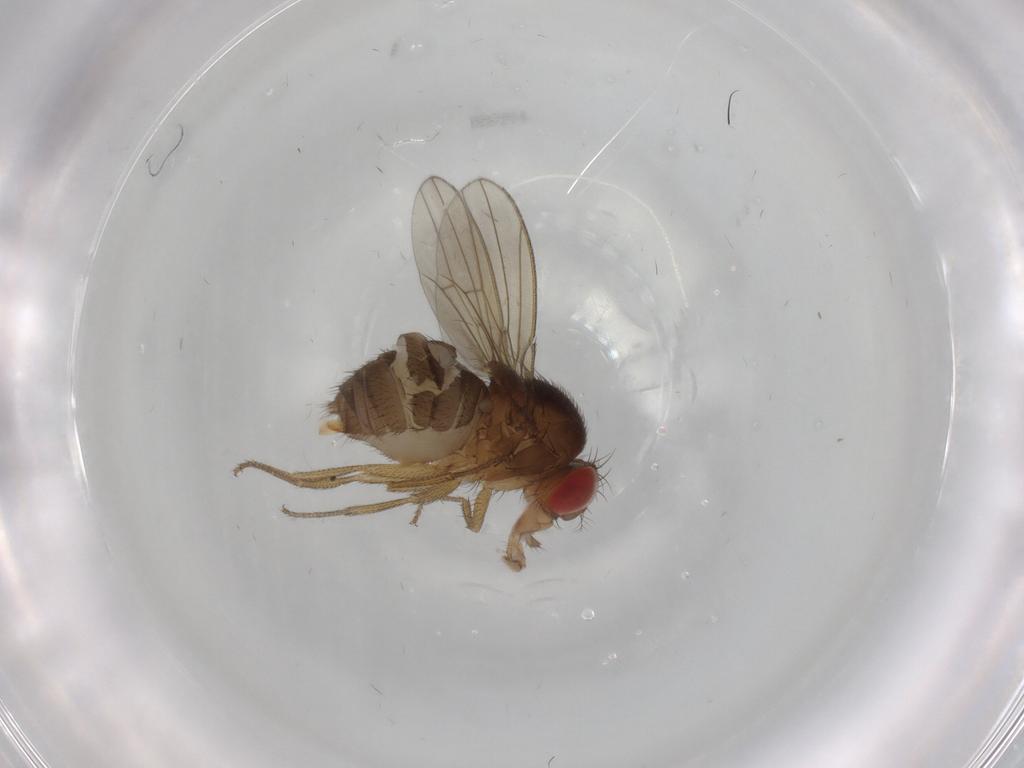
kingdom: Animalia
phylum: Arthropoda
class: Insecta
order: Diptera
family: Drosophilidae
